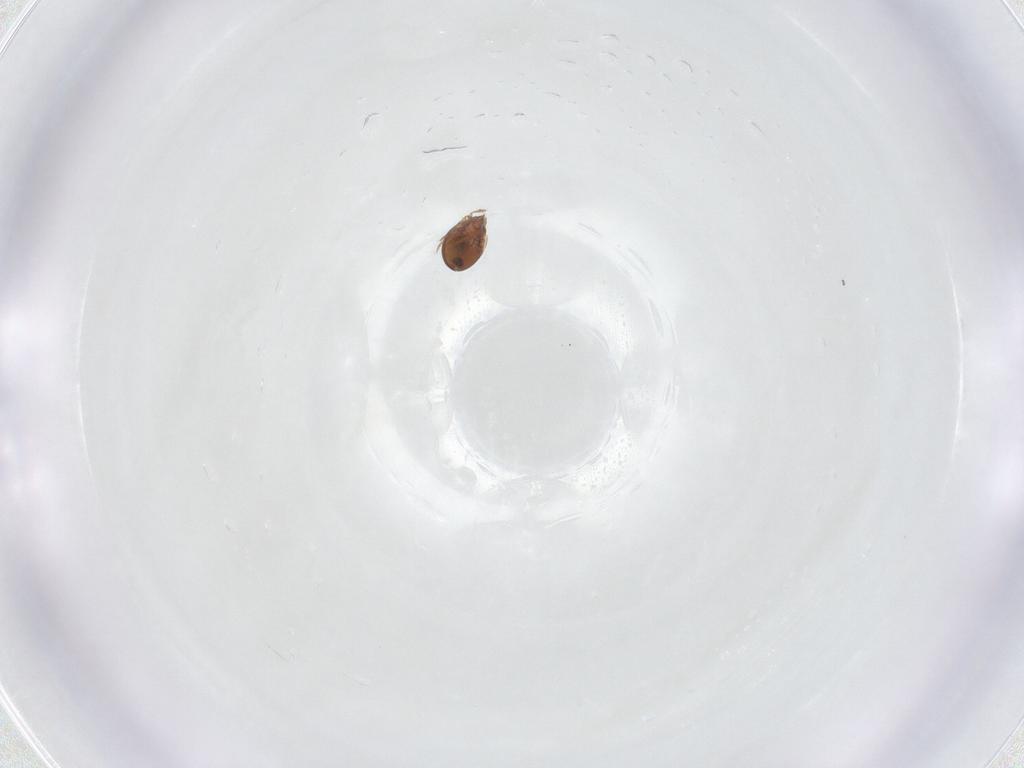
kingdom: Animalia
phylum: Arthropoda
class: Arachnida
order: Sarcoptiformes
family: Scheloribatidae
